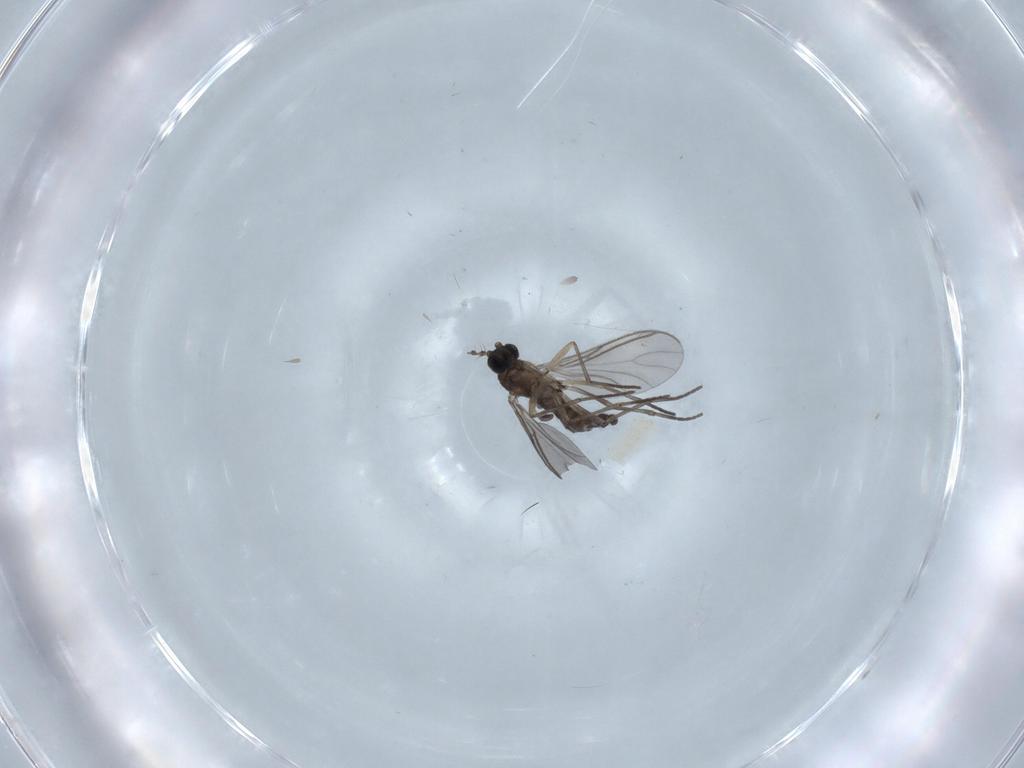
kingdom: Animalia
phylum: Arthropoda
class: Insecta
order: Diptera
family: Sciaridae
